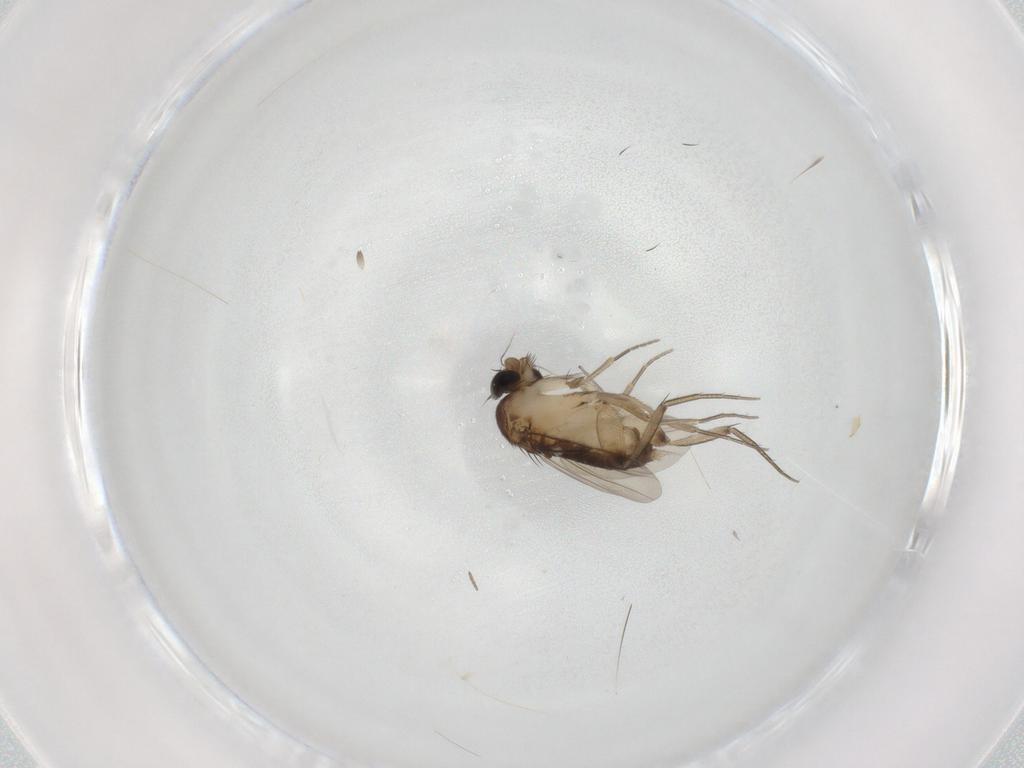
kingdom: Animalia
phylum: Arthropoda
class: Insecta
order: Diptera
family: Phoridae
